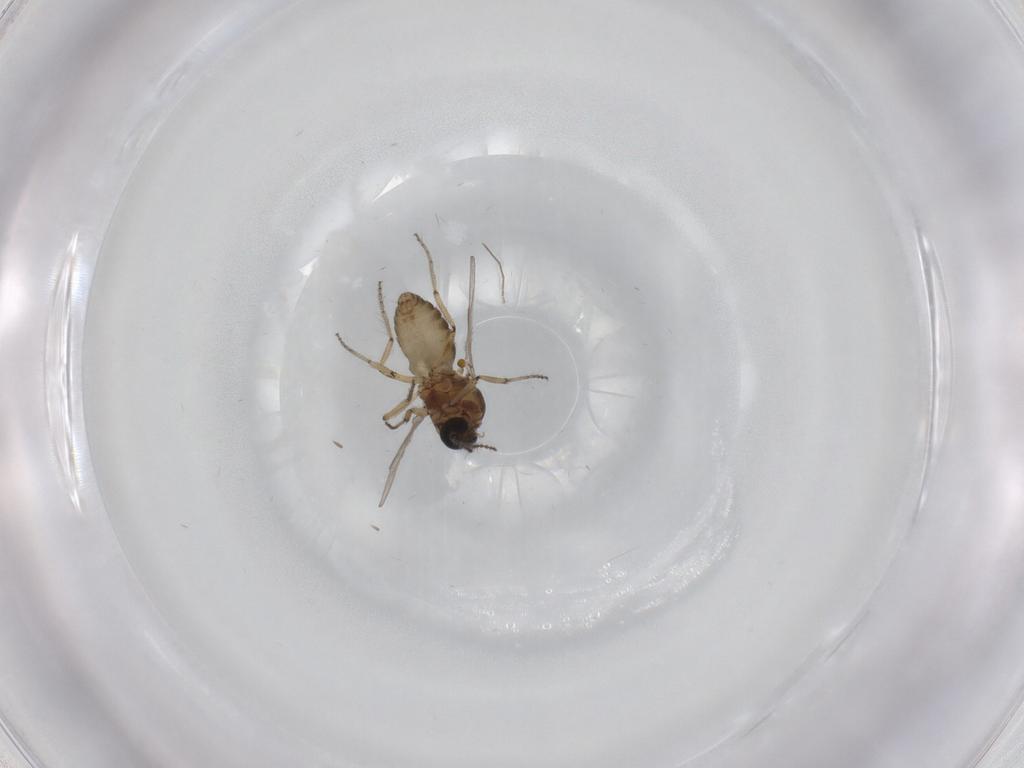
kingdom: Animalia
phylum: Arthropoda
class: Insecta
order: Diptera
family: Ceratopogonidae
